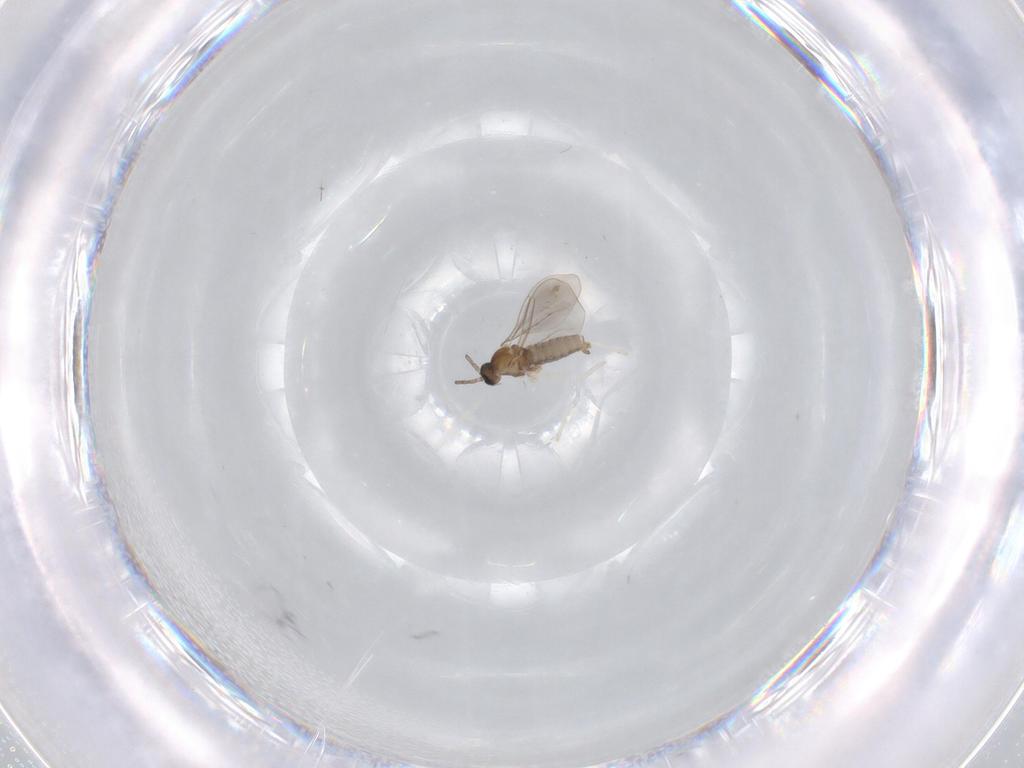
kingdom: Animalia
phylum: Arthropoda
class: Insecta
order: Diptera
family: Cecidomyiidae
